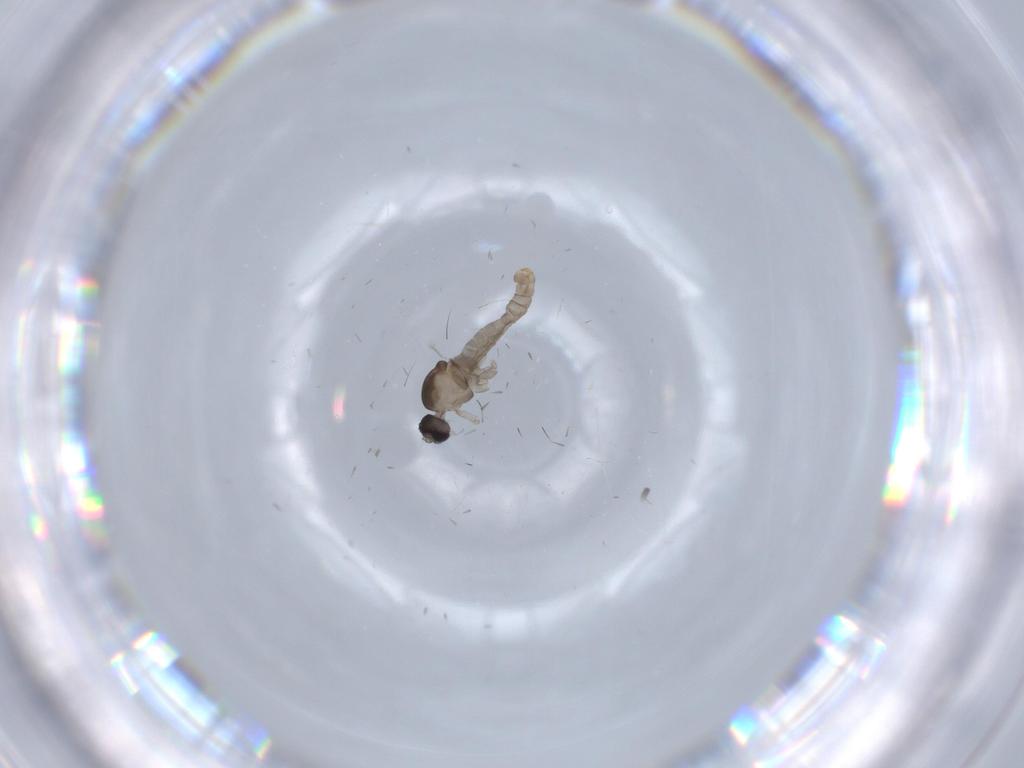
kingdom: Animalia
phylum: Arthropoda
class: Insecta
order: Diptera
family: Cecidomyiidae
